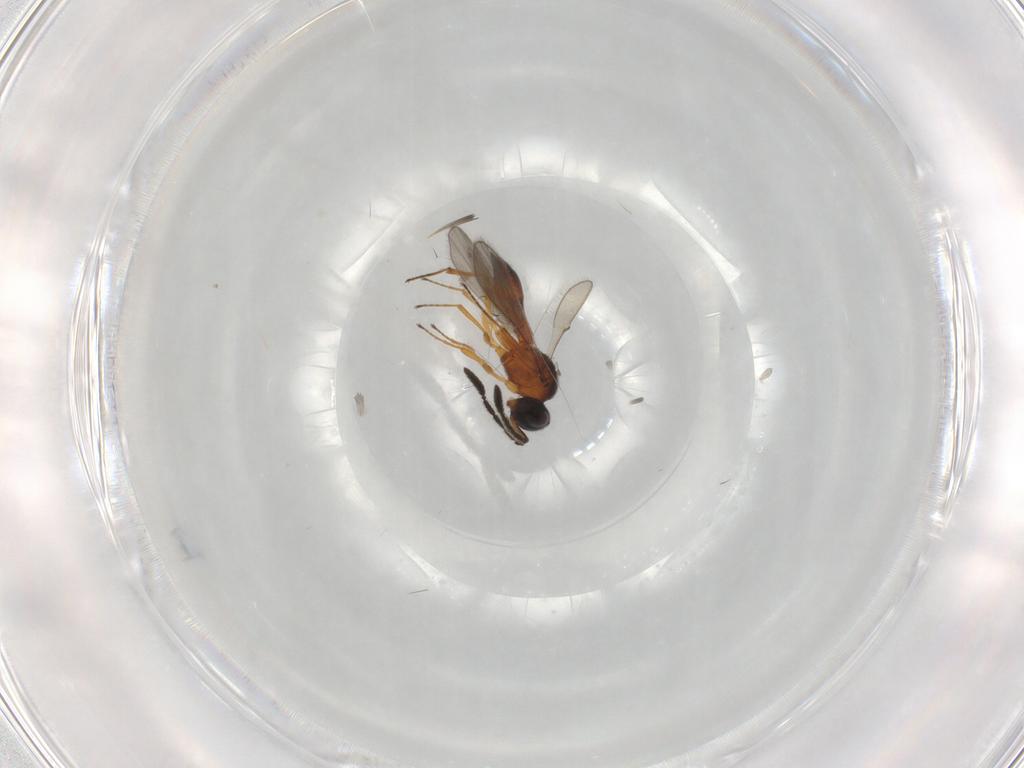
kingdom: Animalia
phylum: Arthropoda
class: Insecta
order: Hymenoptera
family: Scelionidae
